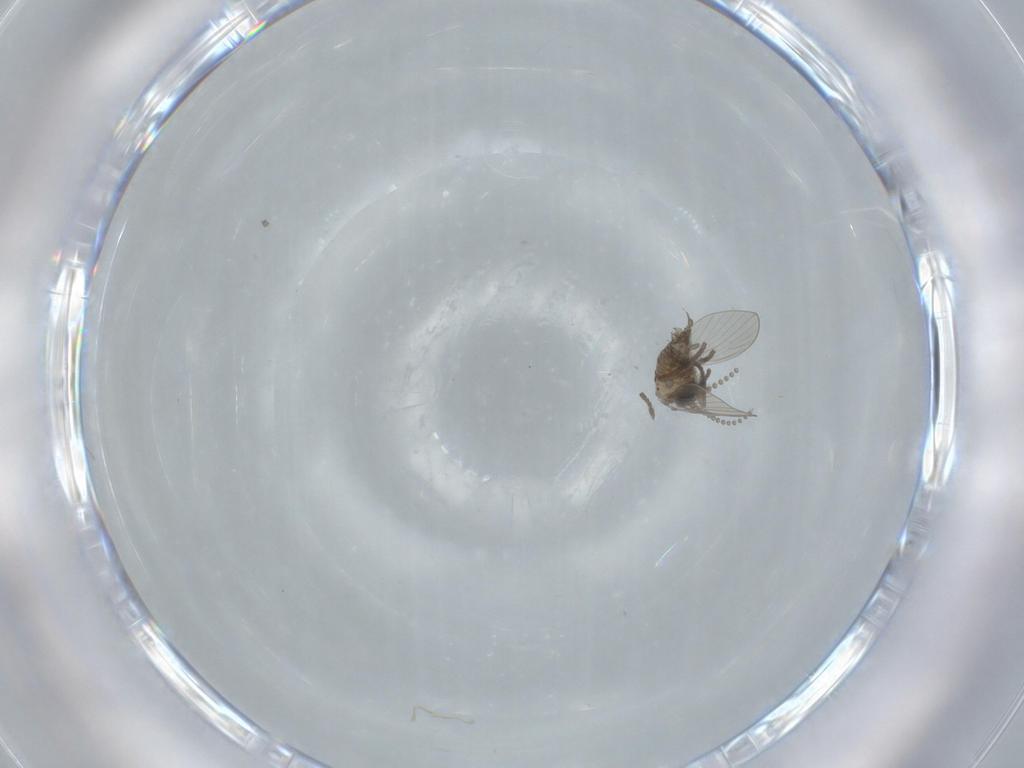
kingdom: Animalia
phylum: Arthropoda
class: Insecta
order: Diptera
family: Psychodidae
